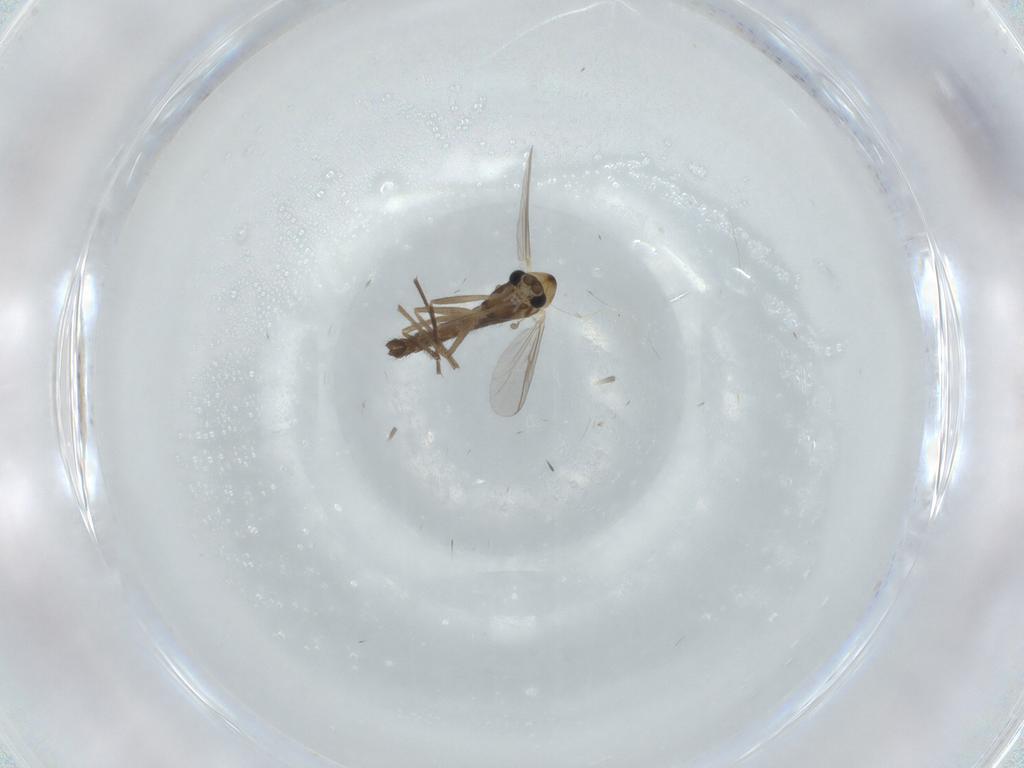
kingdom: Animalia
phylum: Arthropoda
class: Insecta
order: Diptera
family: Chironomidae
